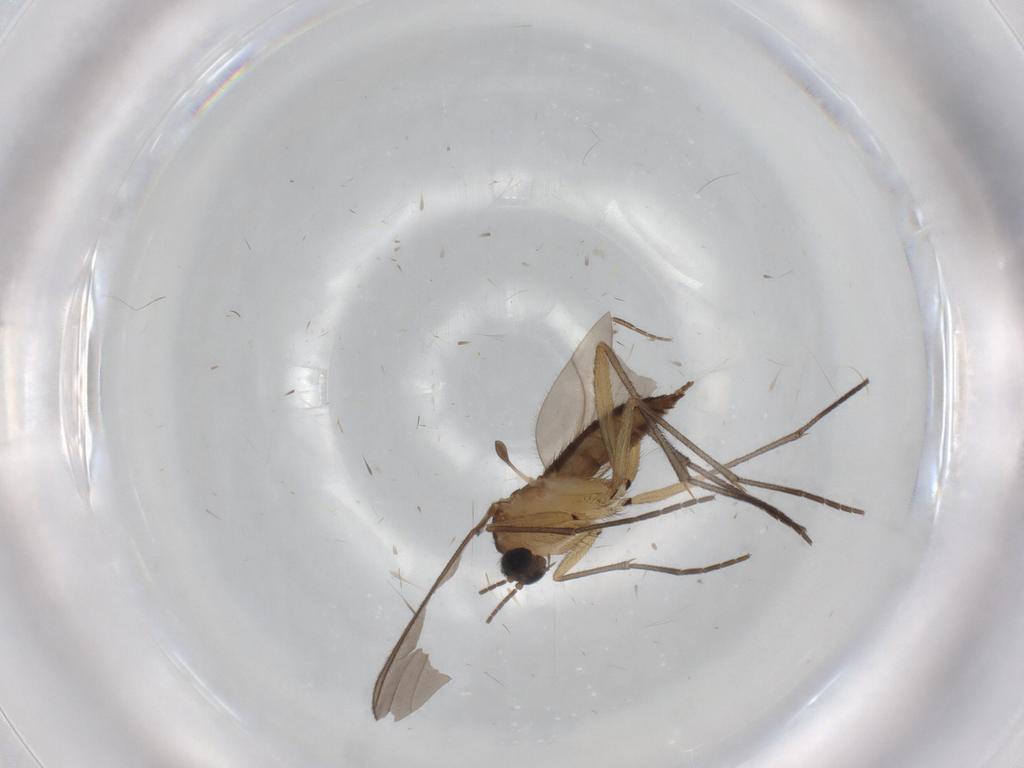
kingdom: Animalia
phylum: Arthropoda
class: Insecta
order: Diptera
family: Sciaridae
